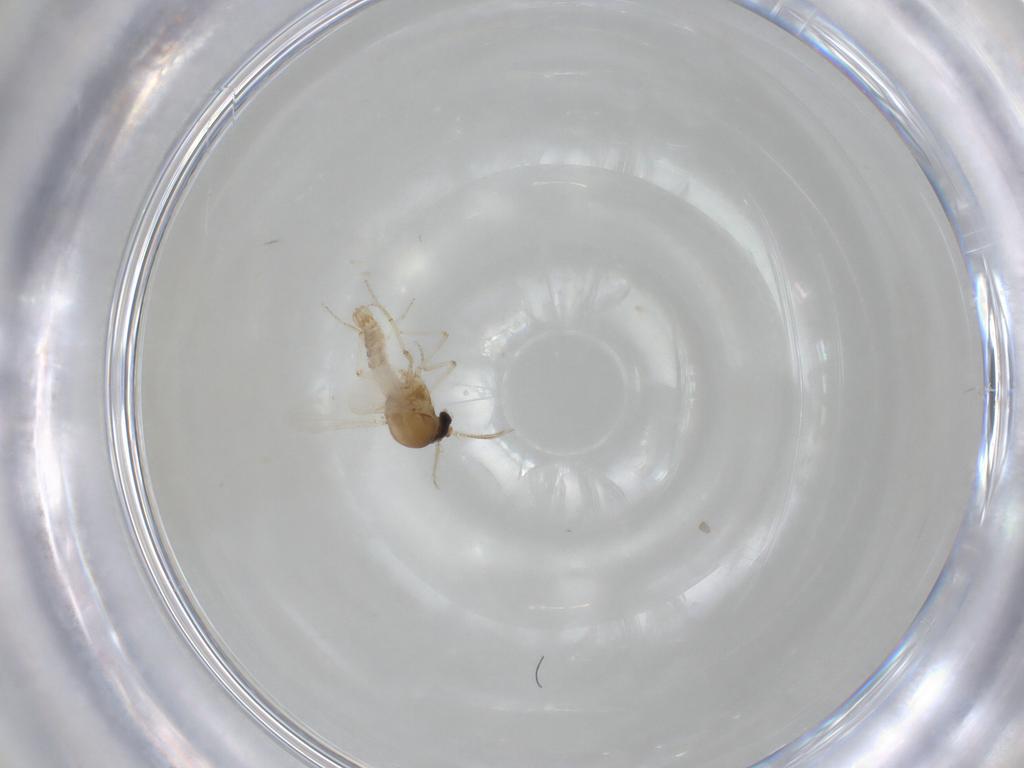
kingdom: Animalia
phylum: Arthropoda
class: Insecta
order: Diptera
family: Ceratopogonidae
